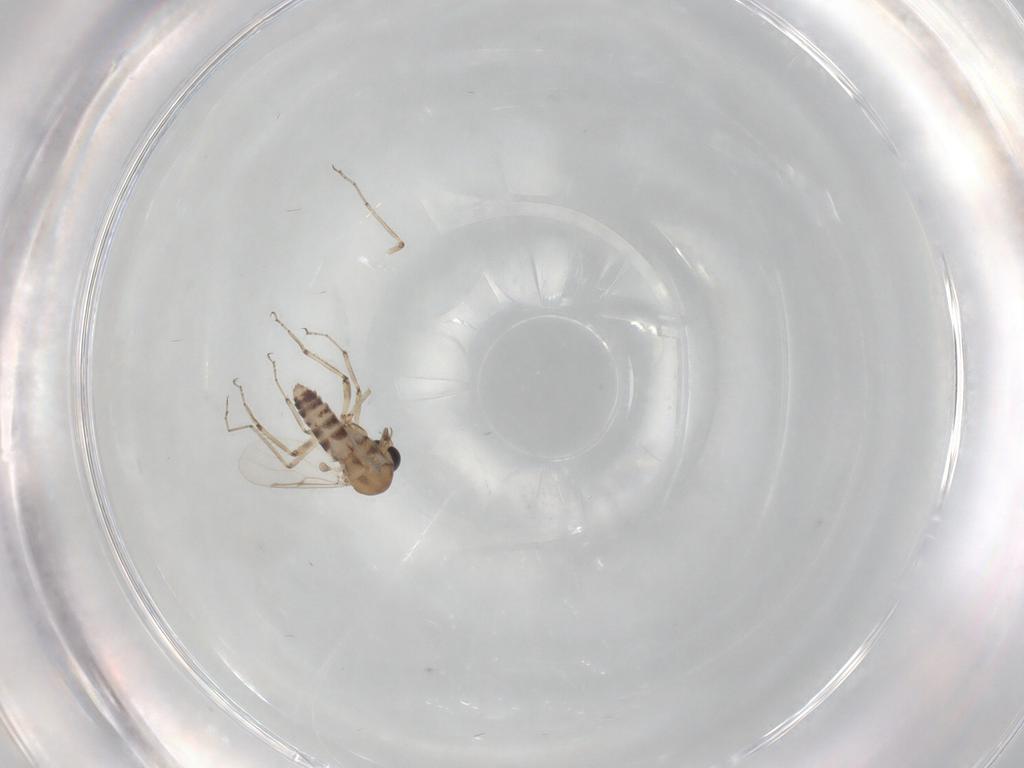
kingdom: Animalia
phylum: Arthropoda
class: Insecta
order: Diptera
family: Ceratopogonidae
